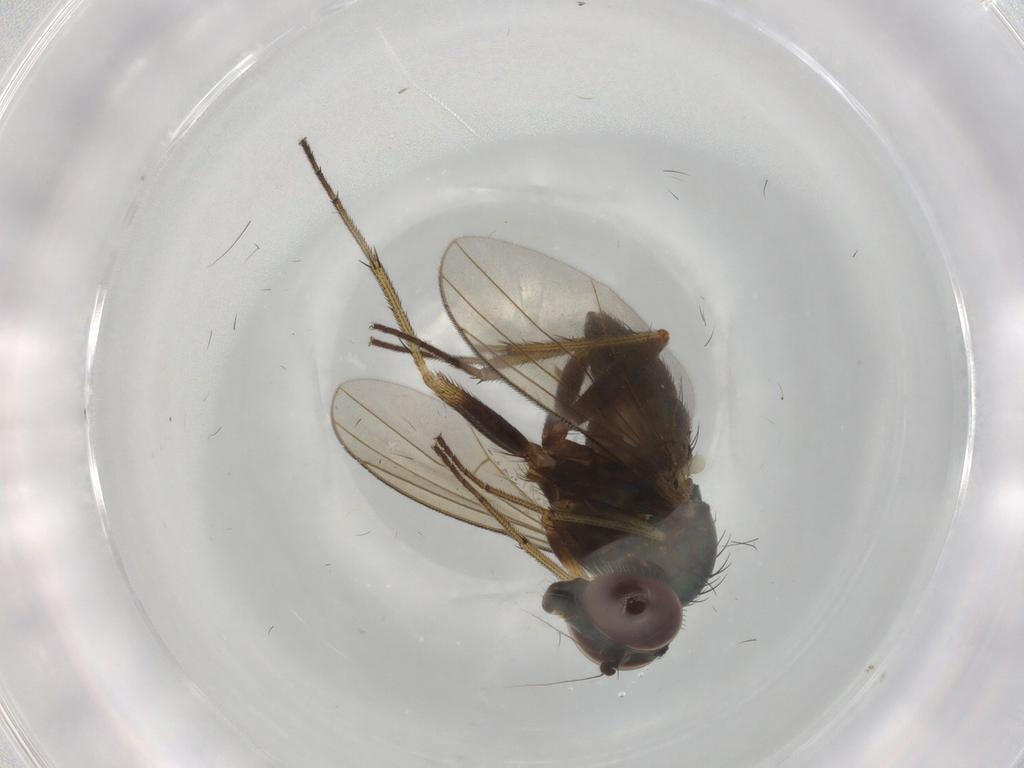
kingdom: Animalia
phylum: Arthropoda
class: Insecta
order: Diptera
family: Dolichopodidae
